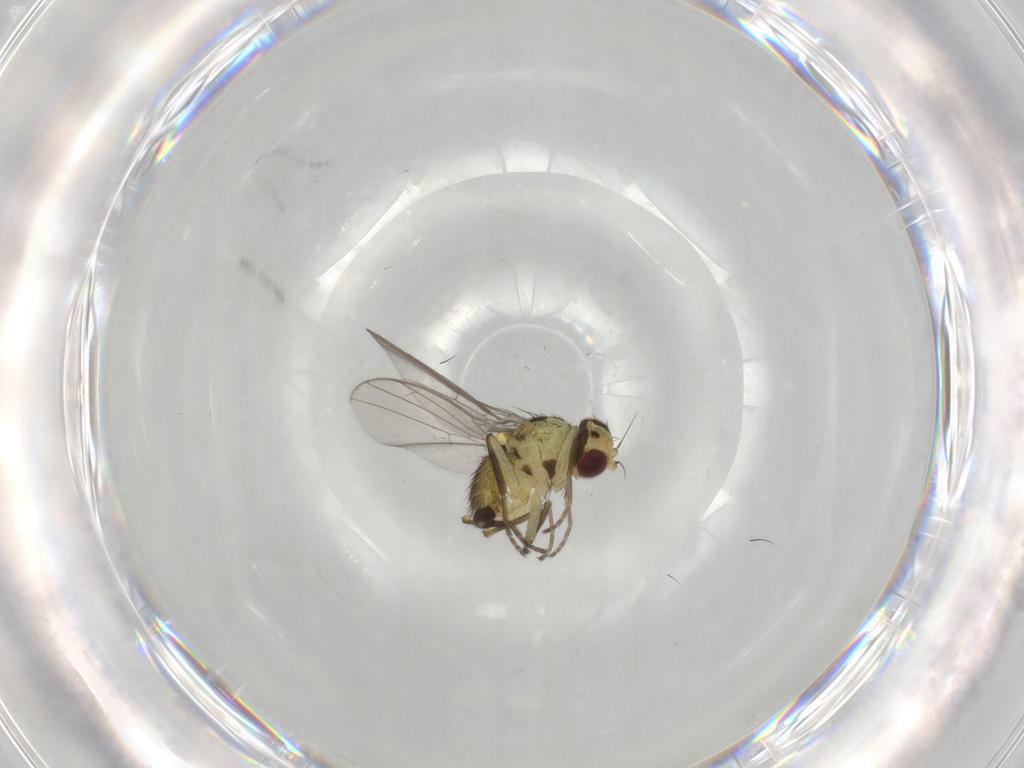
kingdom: Animalia
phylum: Arthropoda
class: Insecta
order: Diptera
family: Agromyzidae
